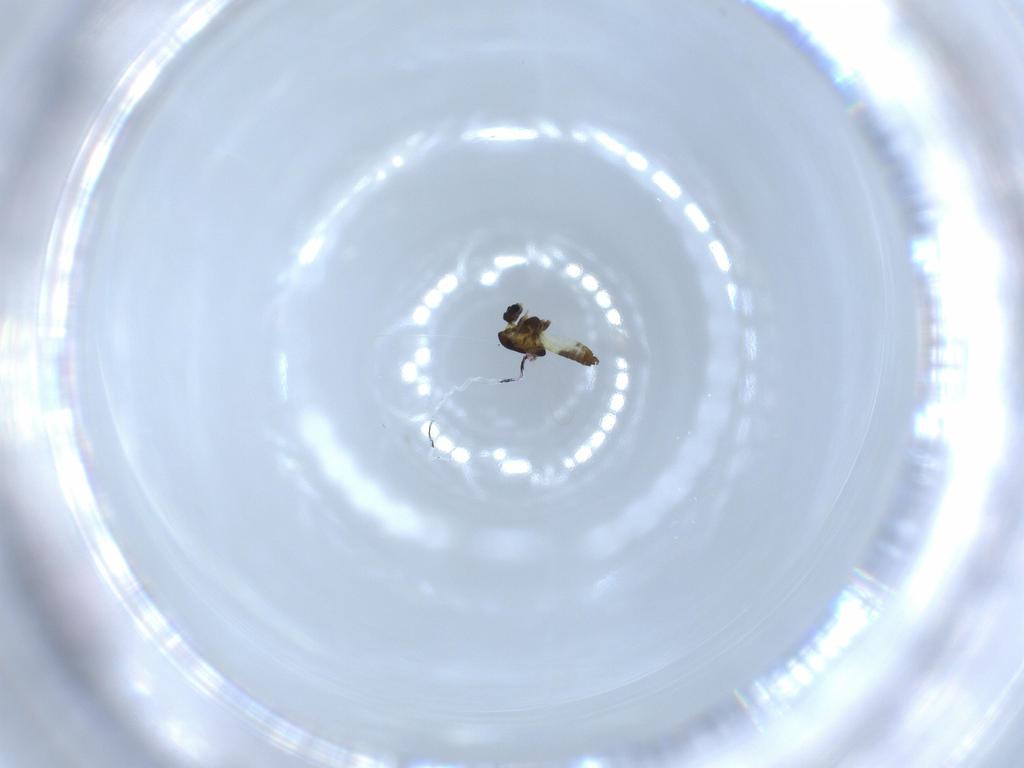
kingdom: Animalia
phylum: Arthropoda
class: Insecta
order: Diptera
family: Chironomidae
